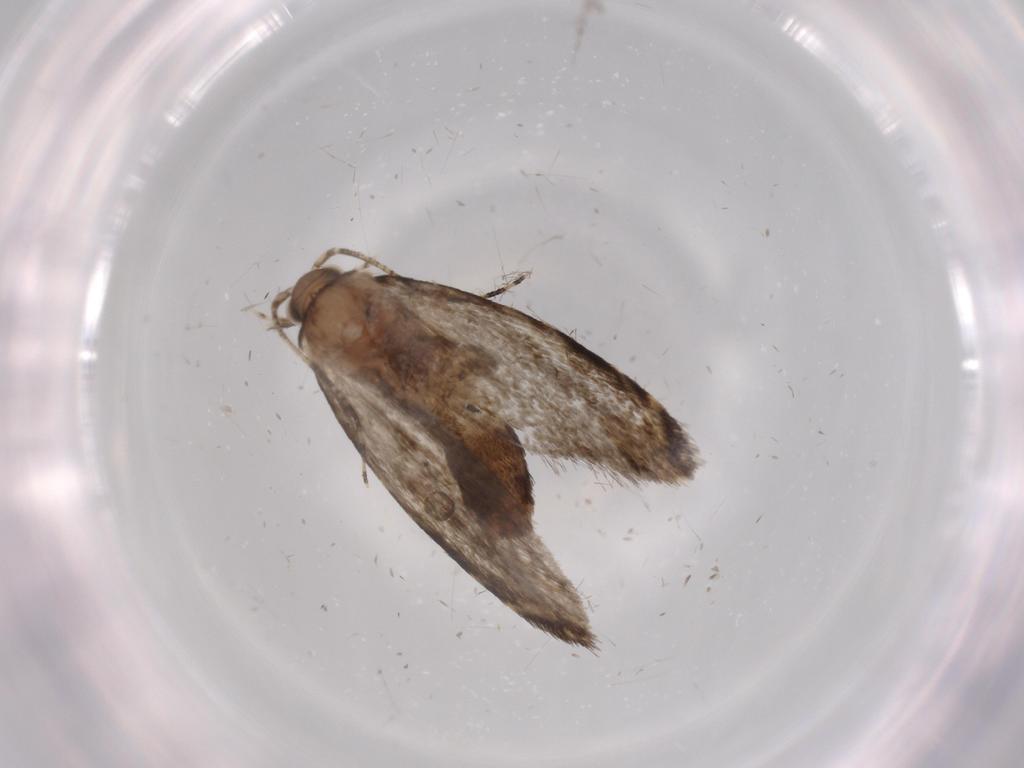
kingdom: Animalia
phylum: Arthropoda
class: Insecta
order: Lepidoptera
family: Tineidae
